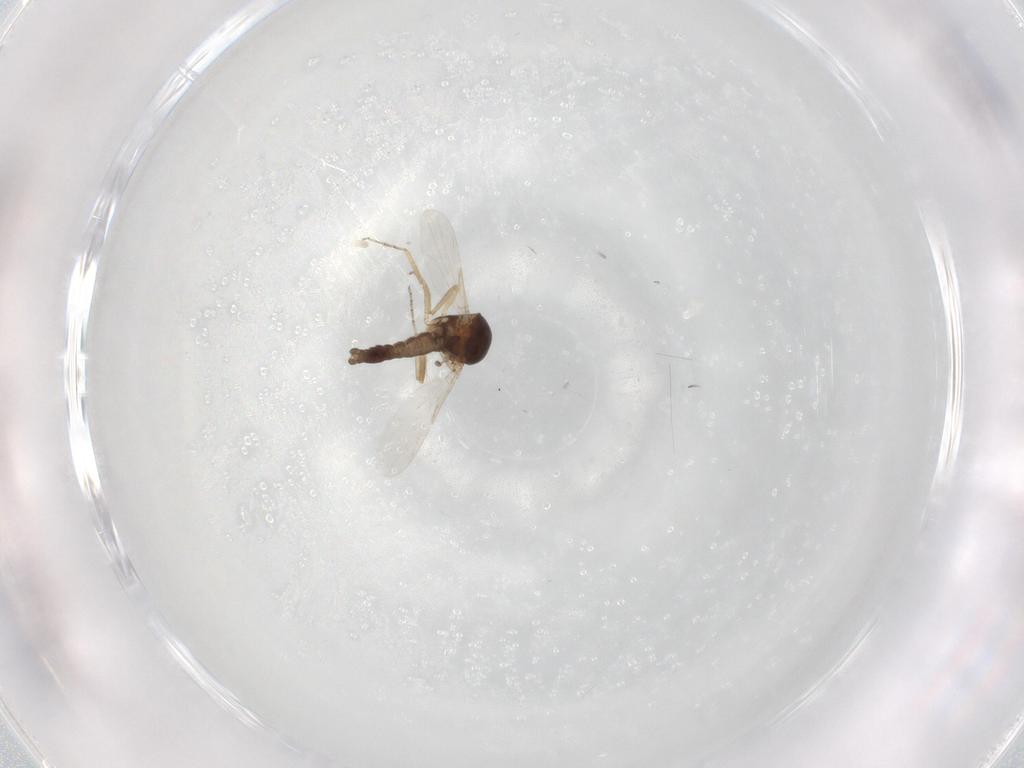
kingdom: Animalia
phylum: Arthropoda
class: Insecta
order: Diptera
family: Ceratopogonidae
